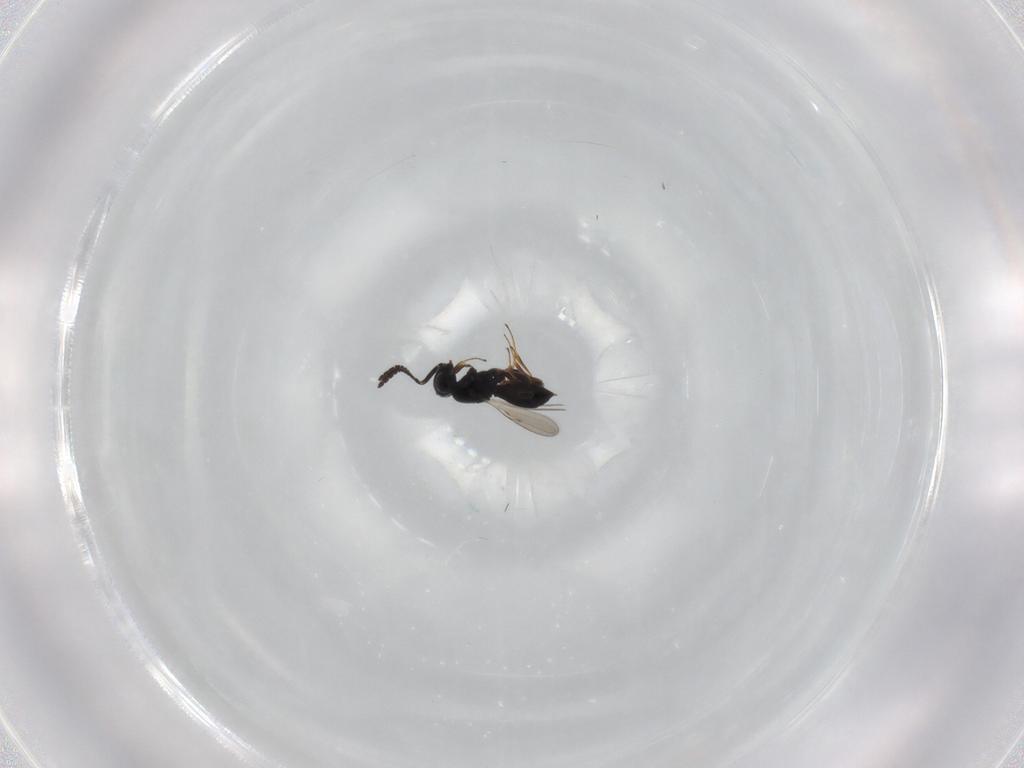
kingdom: Animalia
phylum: Arthropoda
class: Insecta
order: Hymenoptera
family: Scelionidae
